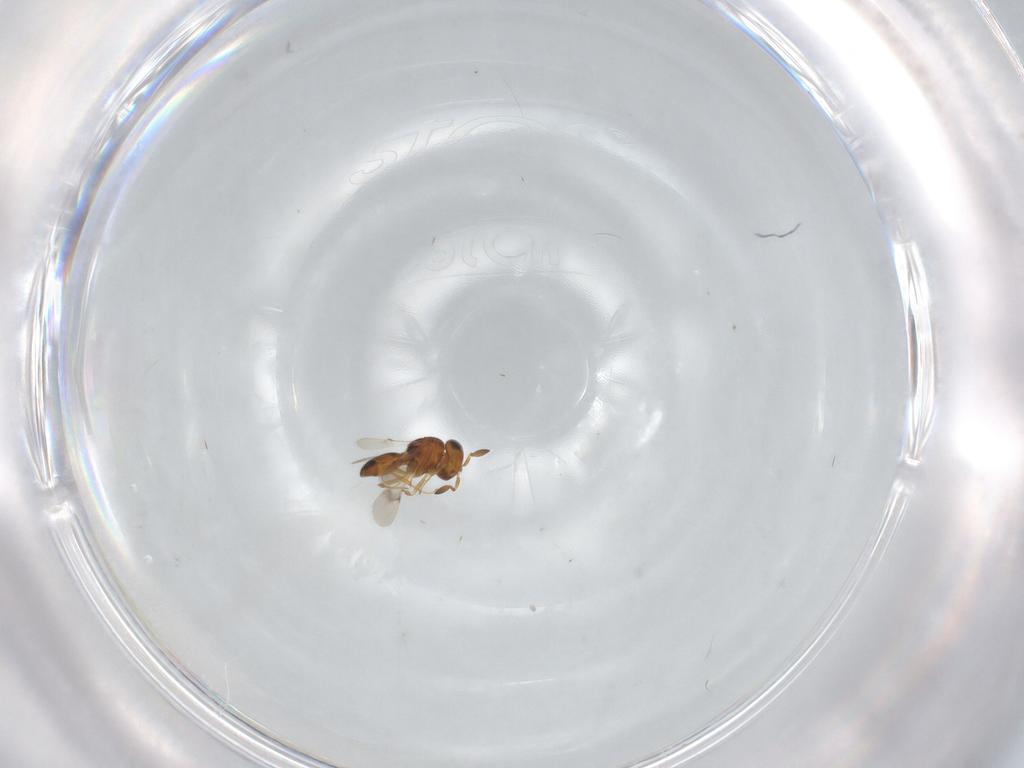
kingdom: Animalia
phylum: Arthropoda
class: Insecta
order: Hymenoptera
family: Scelionidae
